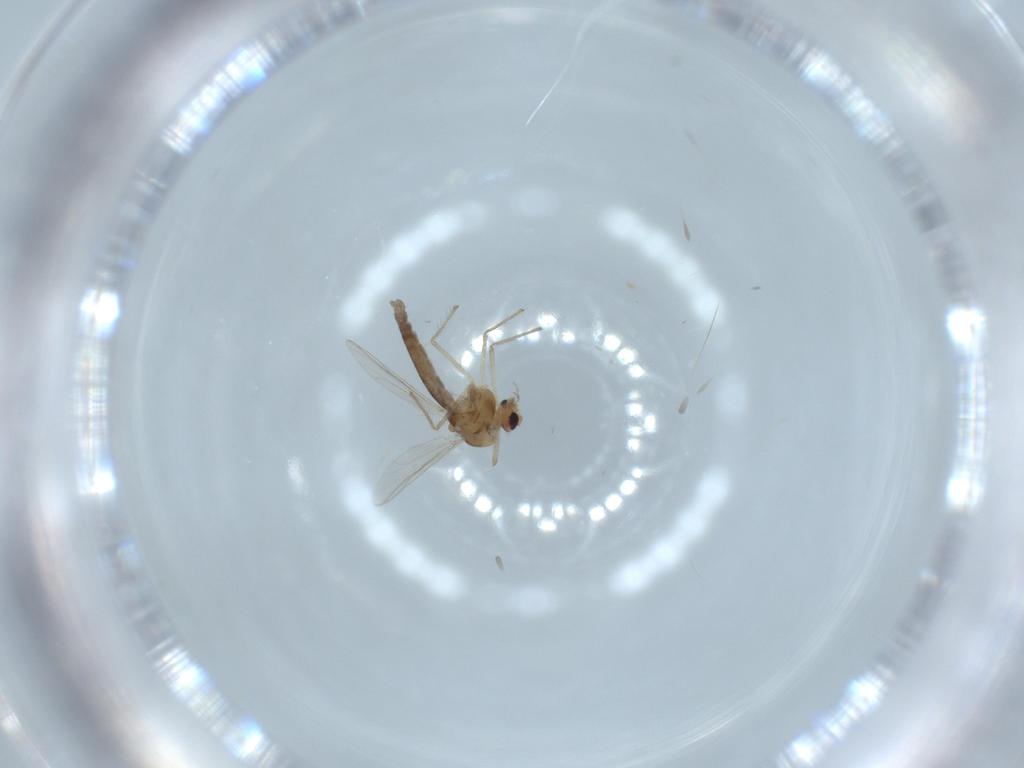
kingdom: Animalia
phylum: Arthropoda
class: Insecta
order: Diptera
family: Chironomidae
